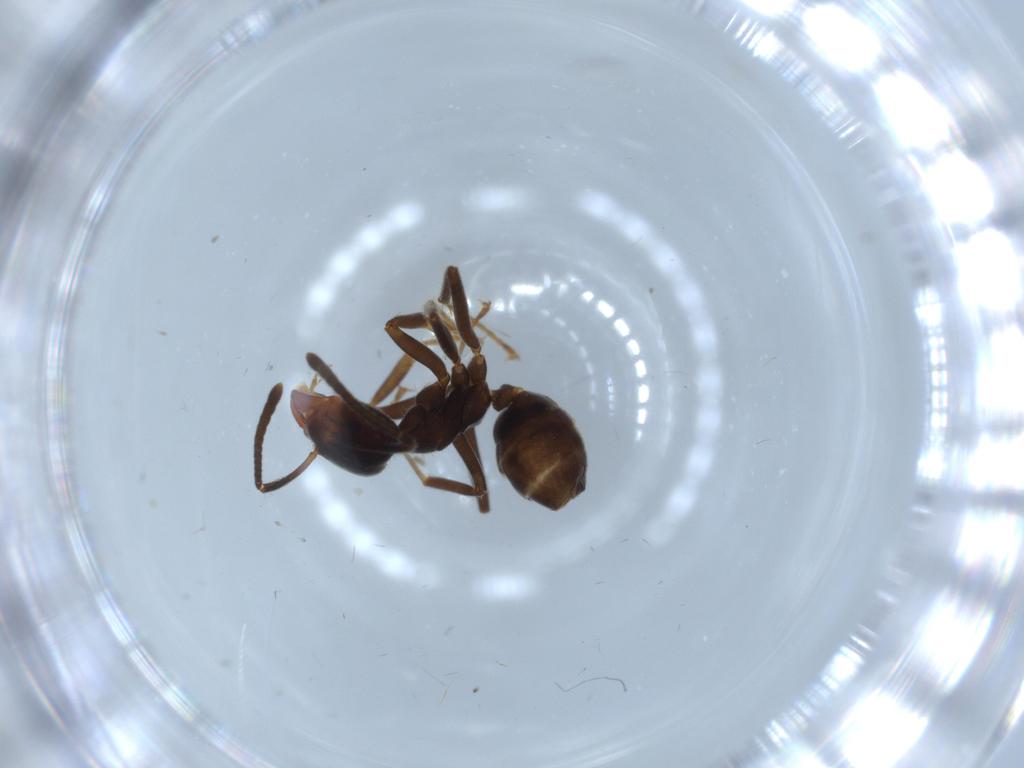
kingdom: Animalia
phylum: Arthropoda
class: Insecta
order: Hymenoptera
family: Formicidae
